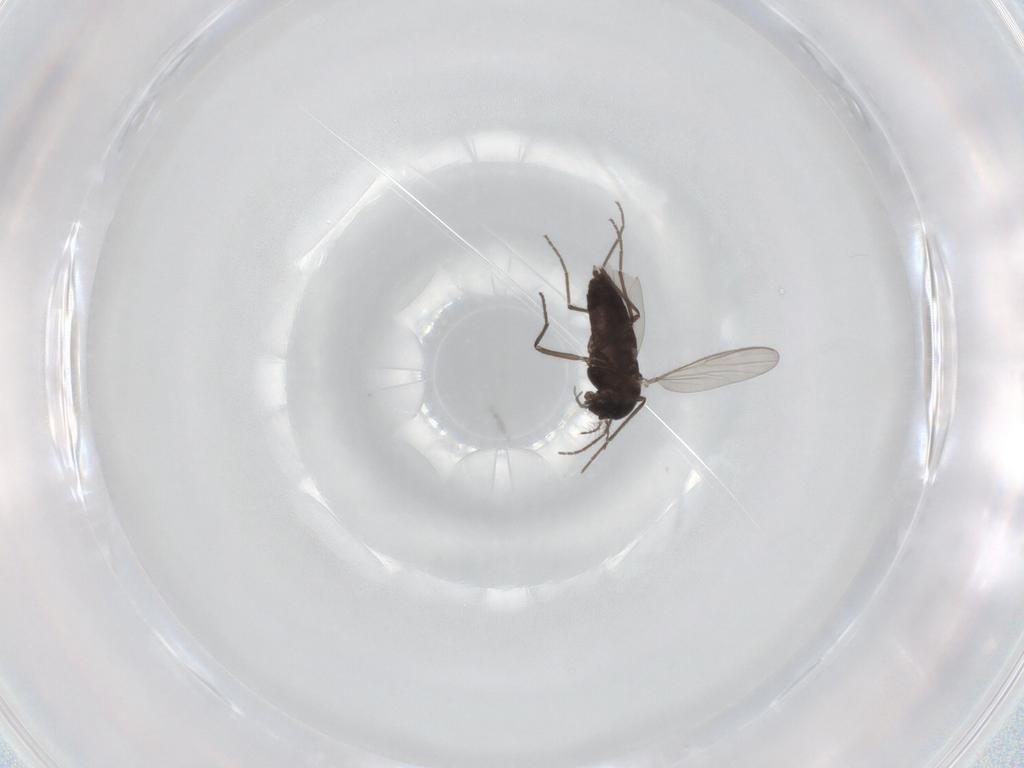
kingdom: Animalia
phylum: Arthropoda
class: Insecta
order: Diptera
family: Chironomidae
